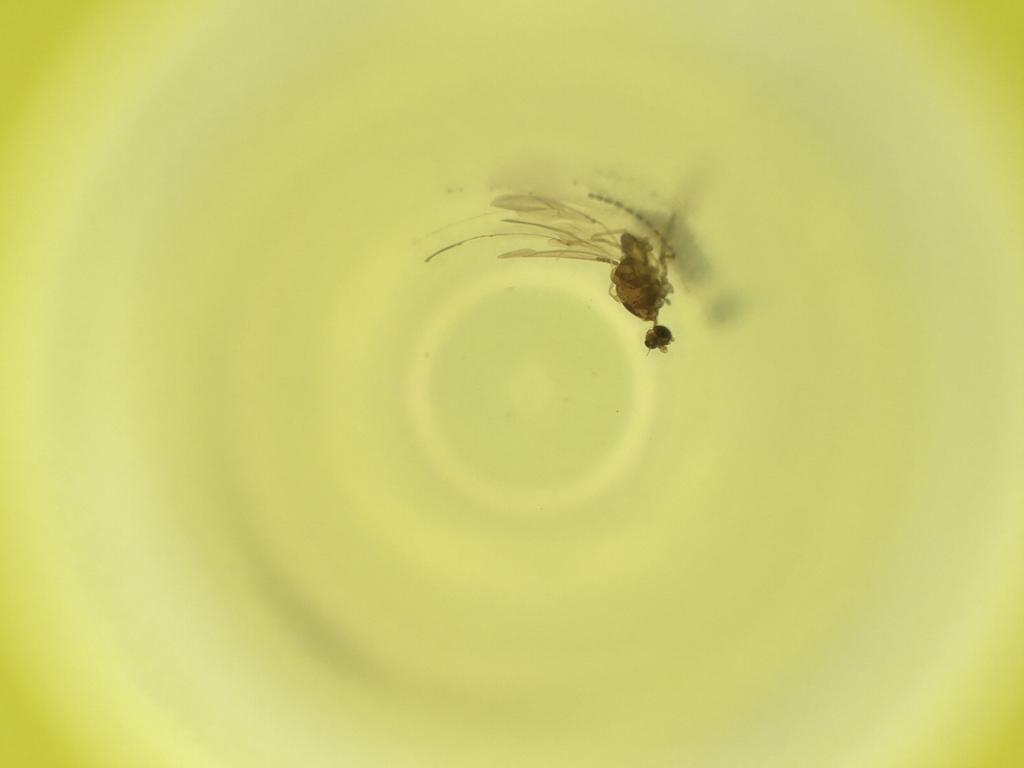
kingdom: Animalia
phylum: Arthropoda
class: Insecta
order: Diptera
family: Cecidomyiidae
